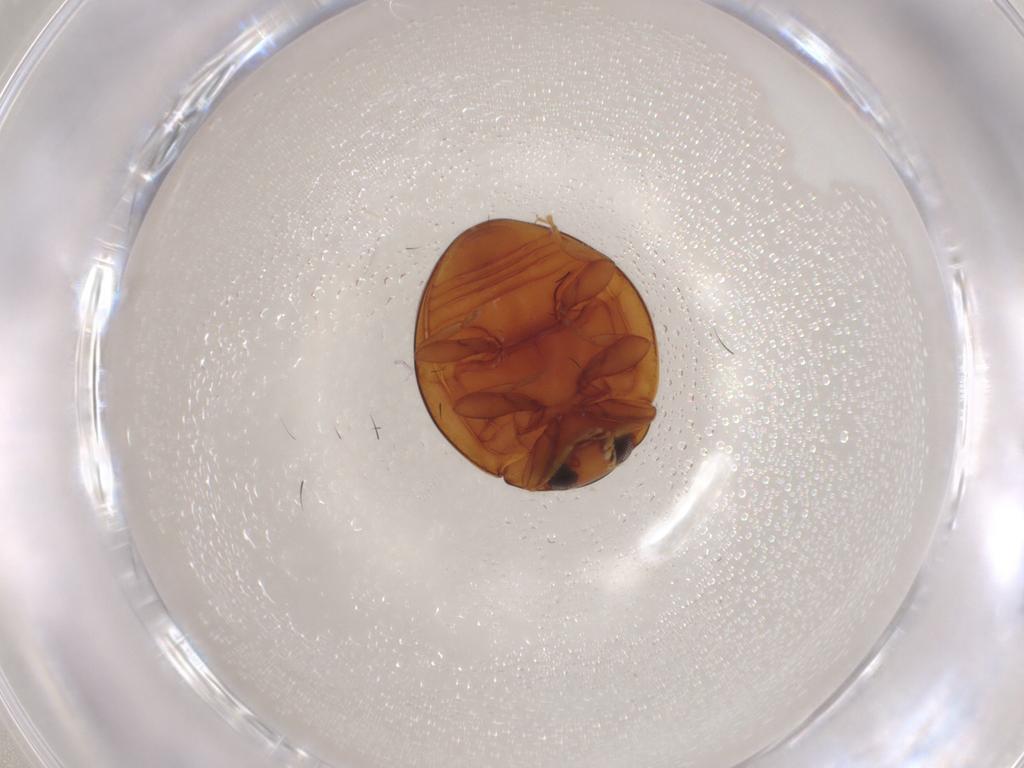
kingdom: Animalia
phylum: Arthropoda
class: Insecta
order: Coleoptera
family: Coccinellidae
